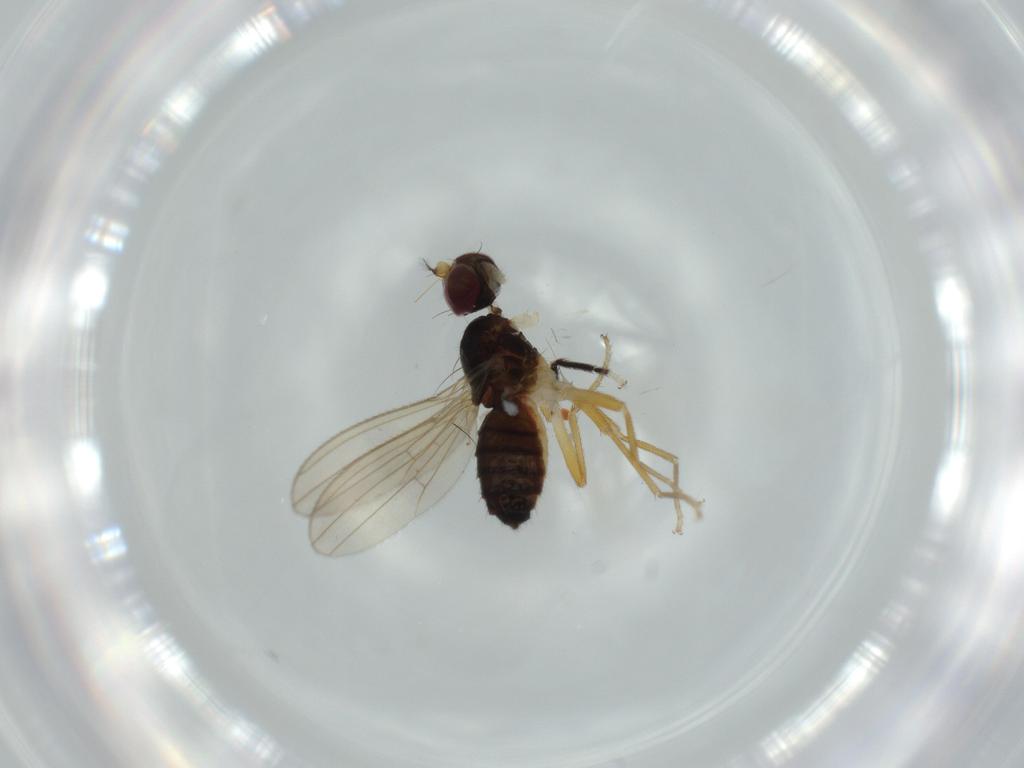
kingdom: Animalia
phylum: Arthropoda
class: Insecta
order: Diptera
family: Anthomyzidae
